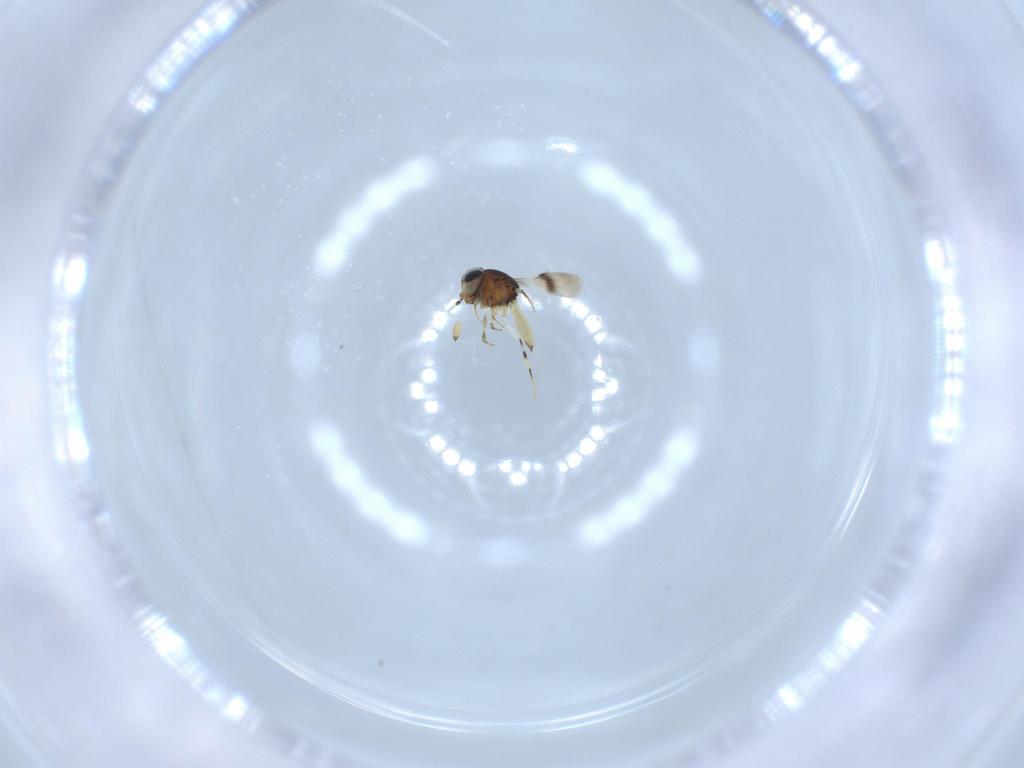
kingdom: Animalia
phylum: Arthropoda
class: Insecta
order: Hymenoptera
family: Scelionidae
